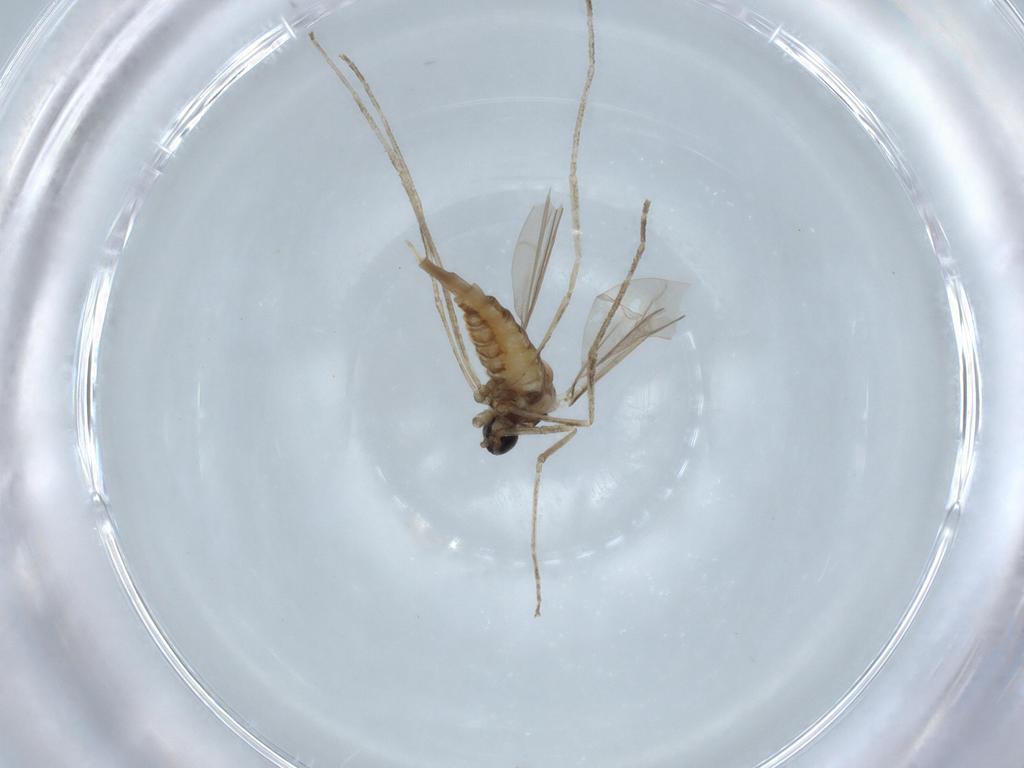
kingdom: Animalia
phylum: Arthropoda
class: Insecta
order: Diptera
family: Cecidomyiidae
